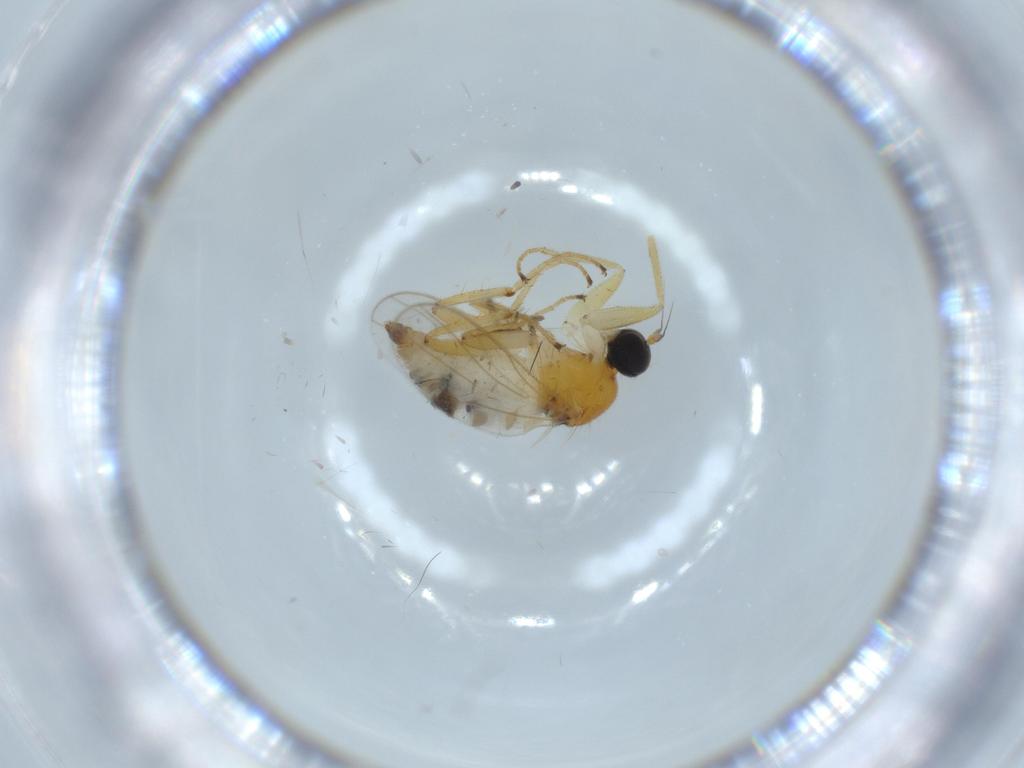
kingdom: Animalia
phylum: Arthropoda
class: Insecta
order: Diptera
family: Hybotidae
